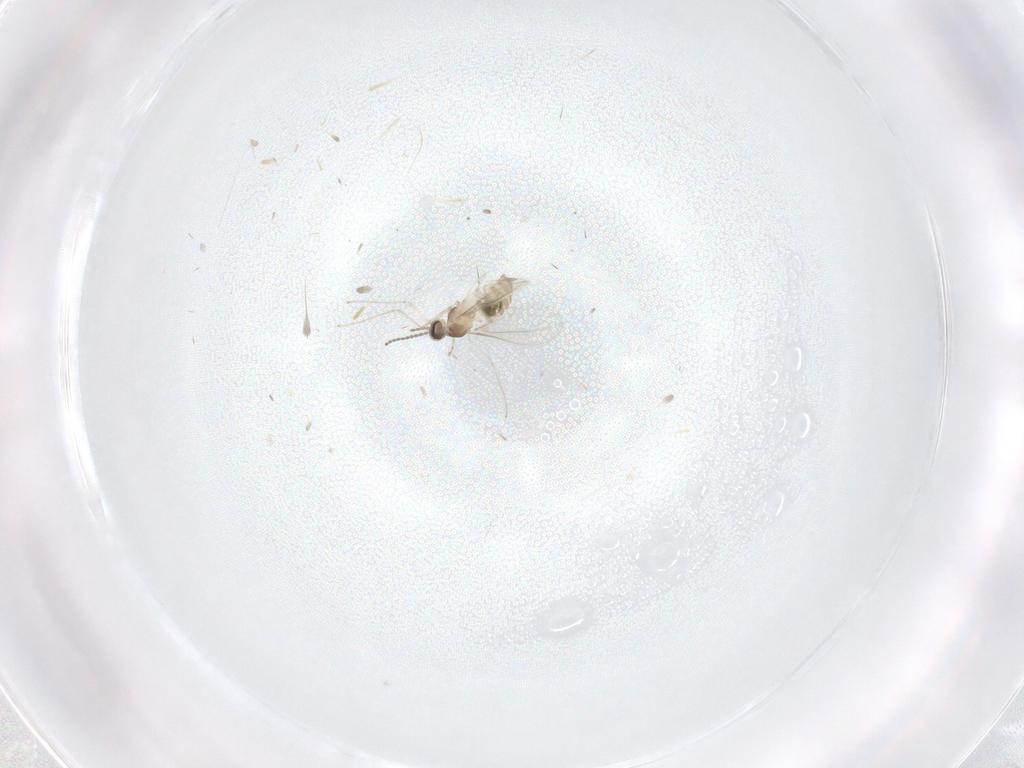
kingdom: Animalia
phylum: Arthropoda
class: Insecta
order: Diptera
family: Cecidomyiidae
